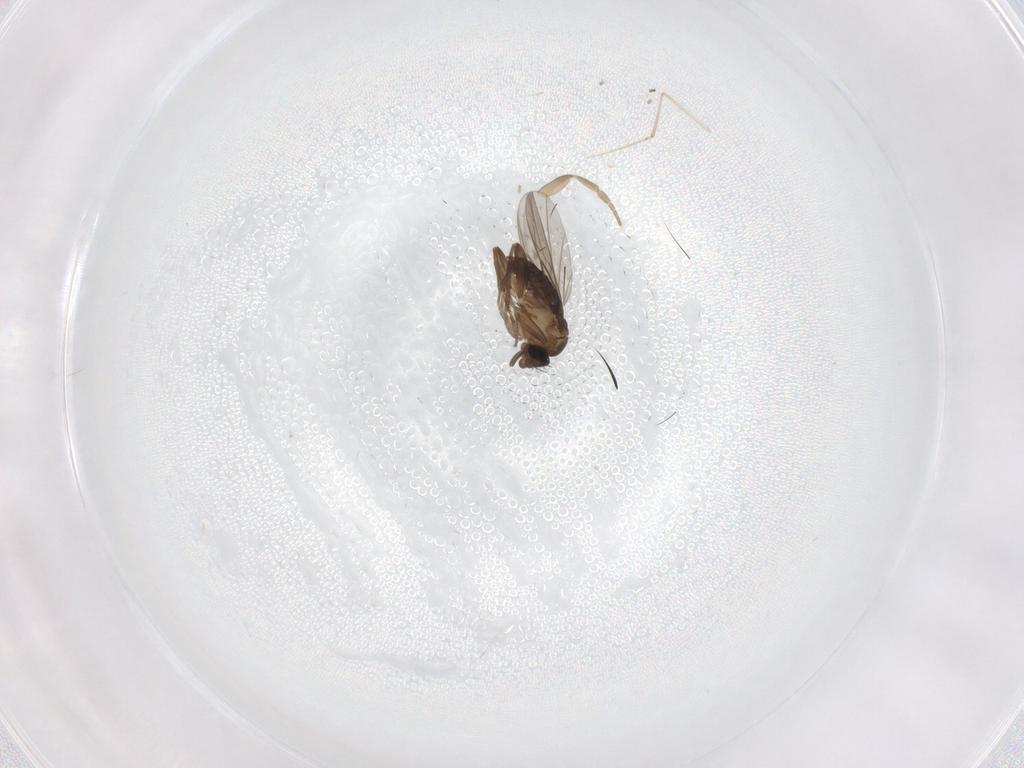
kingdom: Animalia
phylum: Arthropoda
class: Insecta
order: Diptera
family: Cecidomyiidae
